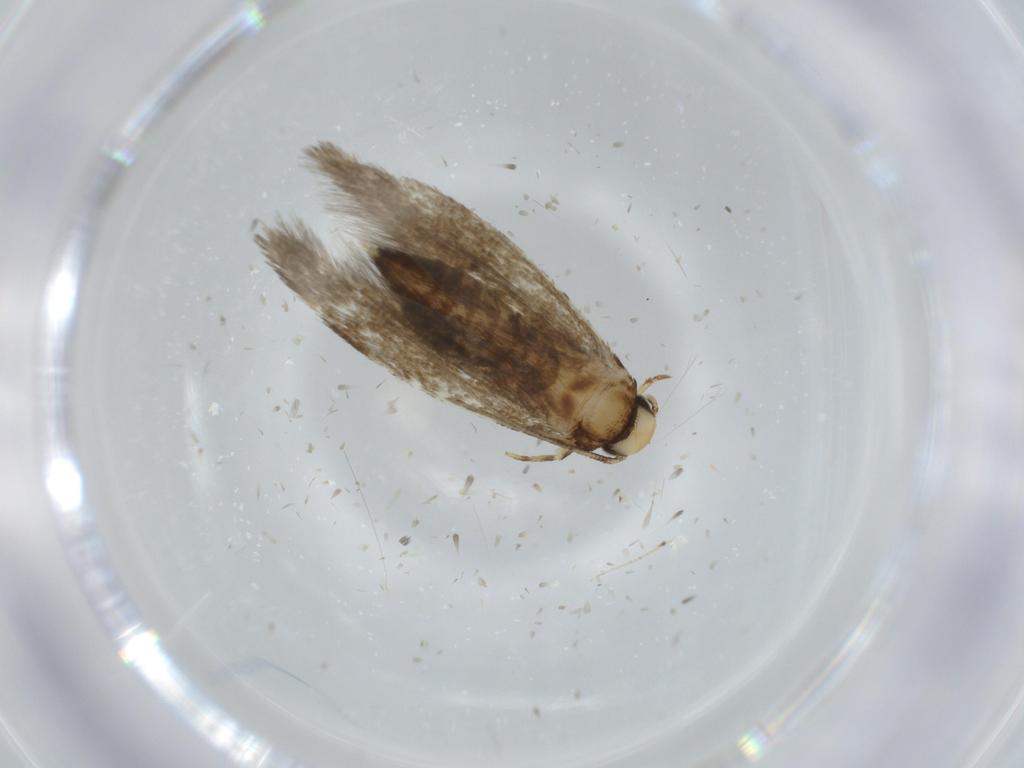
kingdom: Animalia
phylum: Arthropoda
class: Insecta
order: Lepidoptera
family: Tineidae
